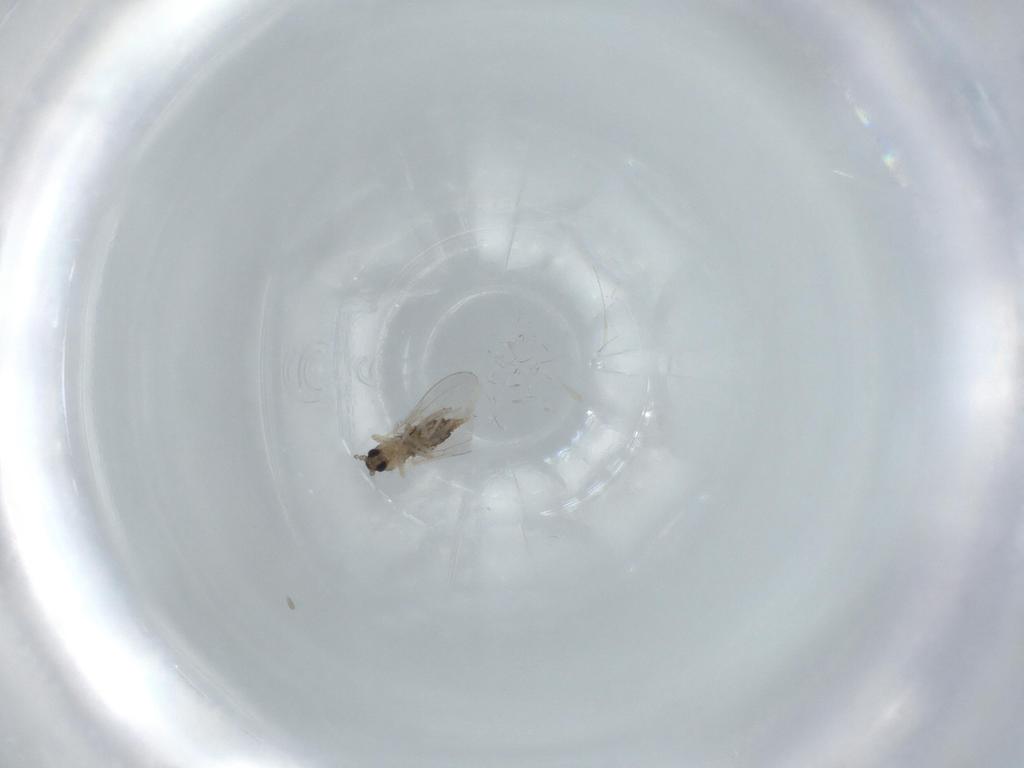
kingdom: Animalia
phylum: Arthropoda
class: Insecta
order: Diptera
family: Cecidomyiidae
